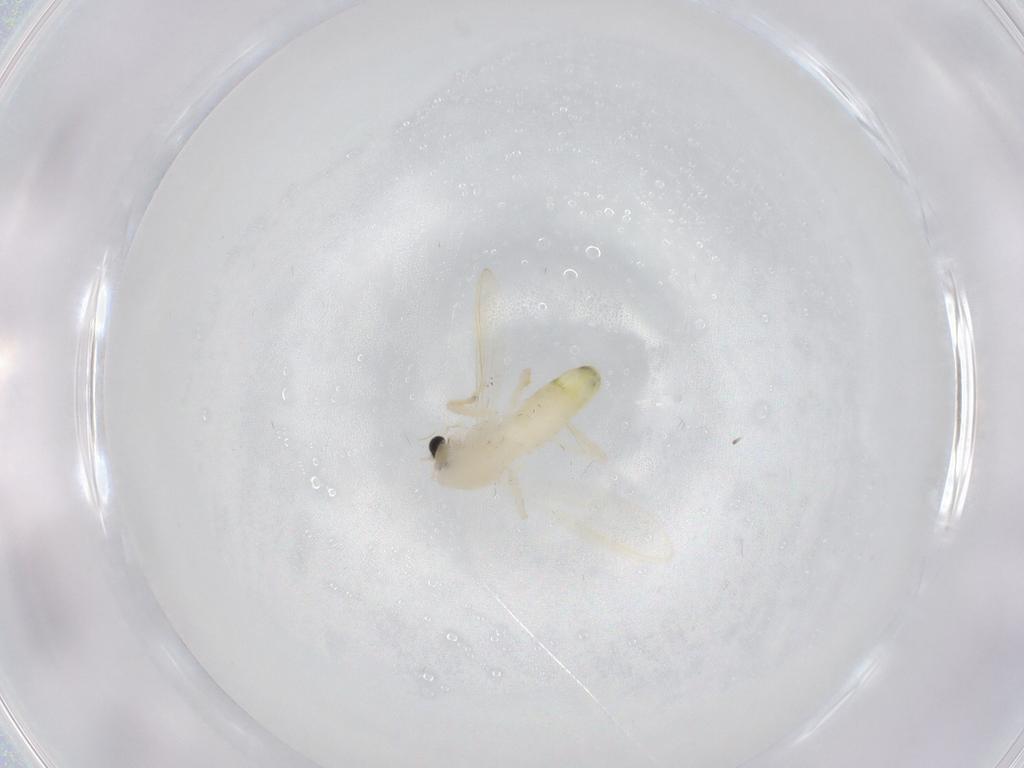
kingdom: Animalia
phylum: Arthropoda
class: Insecta
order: Diptera
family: Chironomidae
